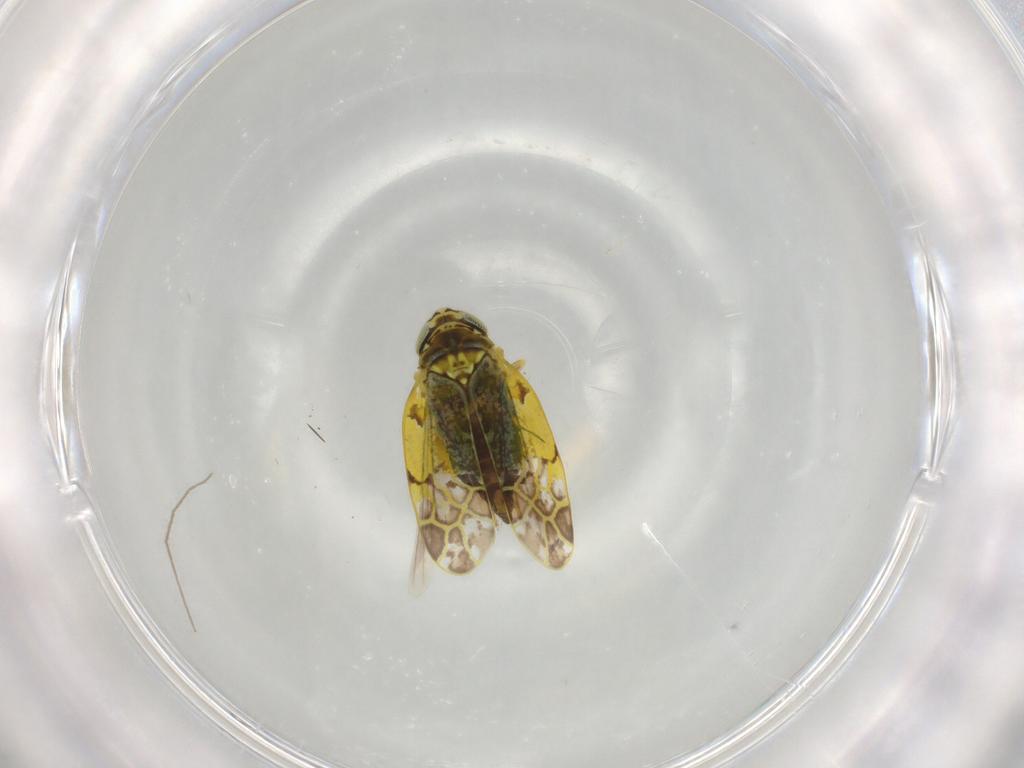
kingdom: Animalia
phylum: Arthropoda
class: Insecta
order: Hemiptera
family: Cicadellidae
